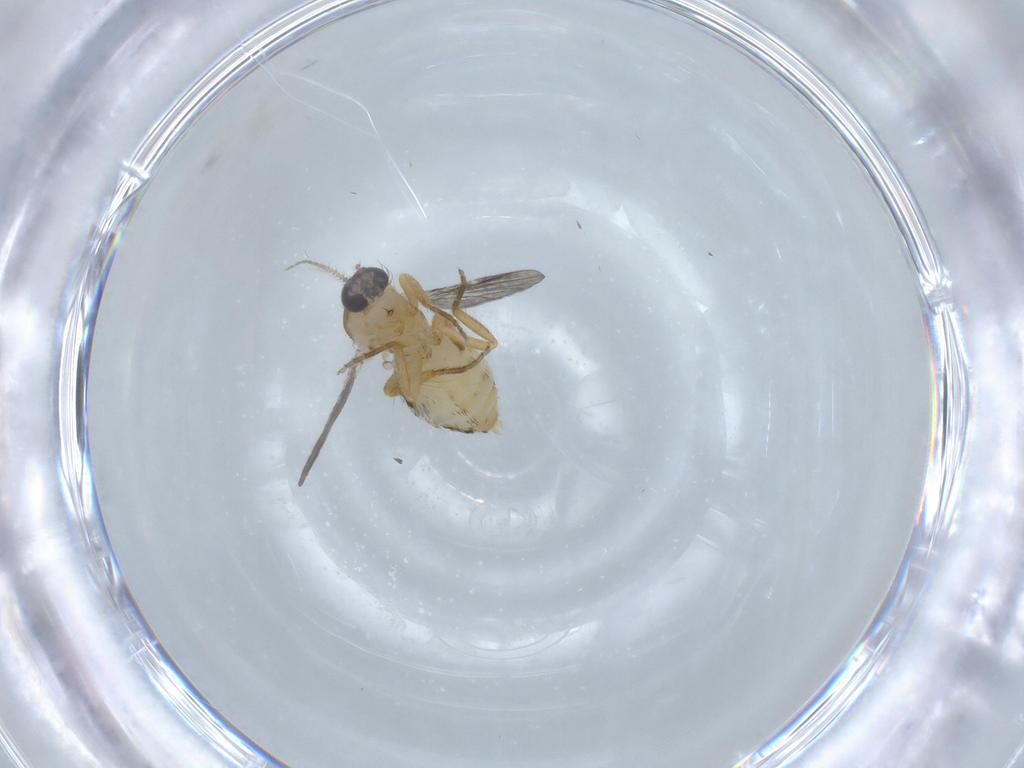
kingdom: Animalia
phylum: Arthropoda
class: Insecta
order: Diptera
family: Ceratopogonidae
